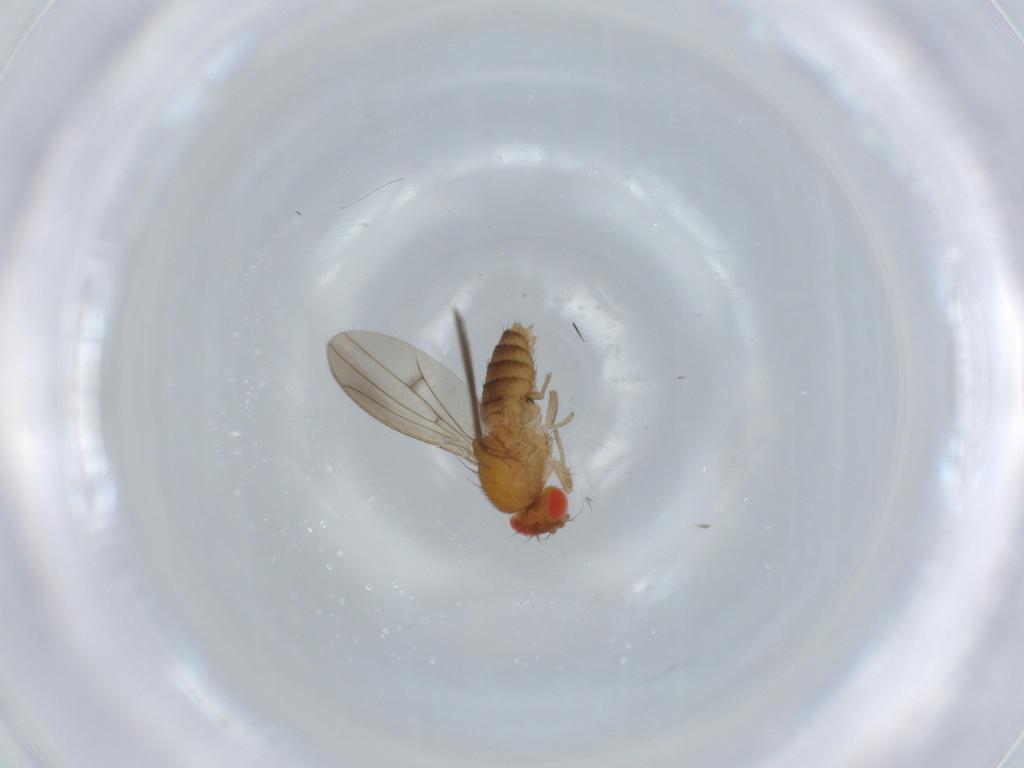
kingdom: Animalia
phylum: Arthropoda
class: Insecta
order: Diptera
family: Drosophilidae
